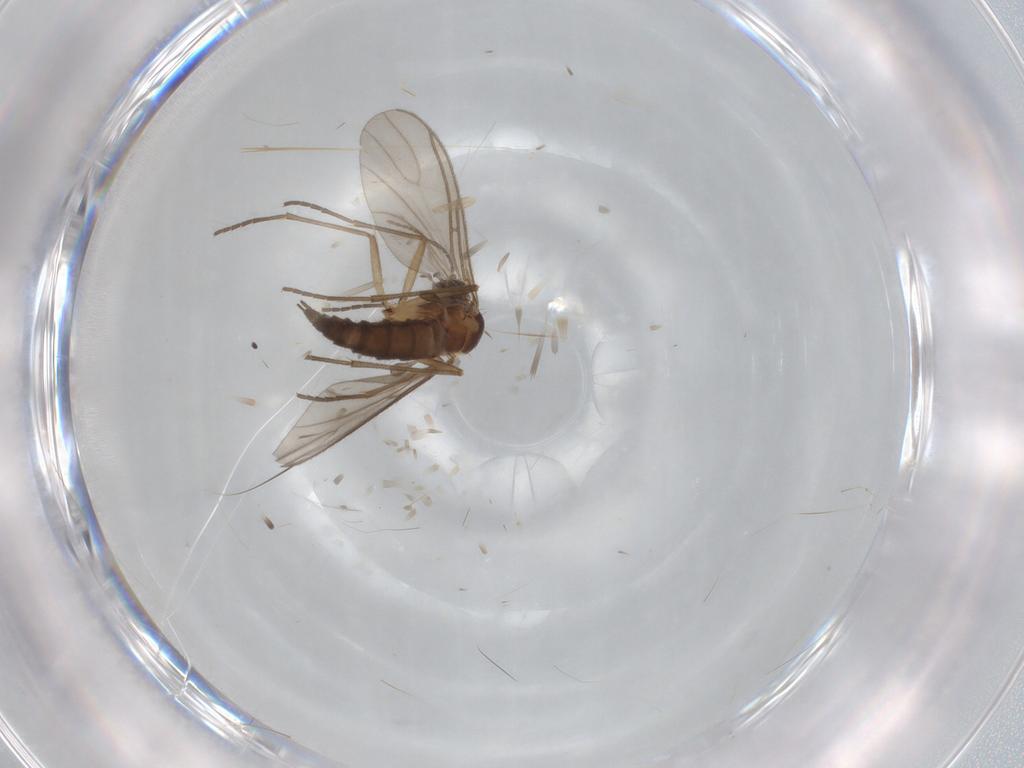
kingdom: Animalia
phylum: Arthropoda
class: Insecta
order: Diptera
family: Sciaridae
